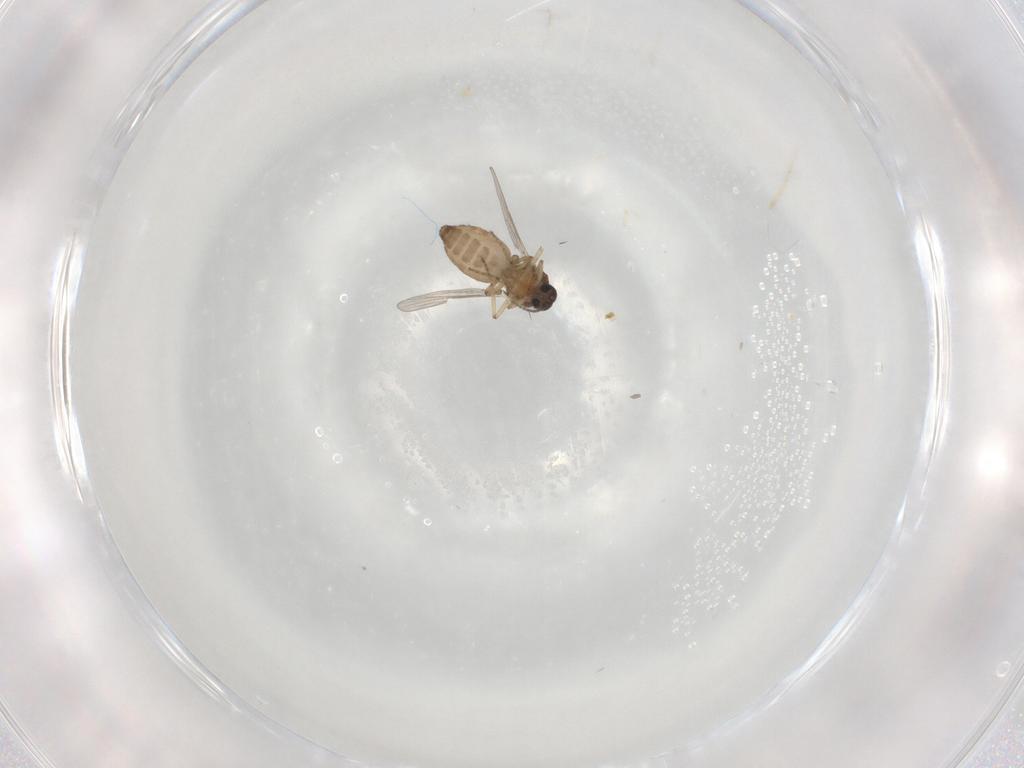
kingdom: Animalia
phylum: Arthropoda
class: Insecta
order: Diptera
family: Ceratopogonidae
